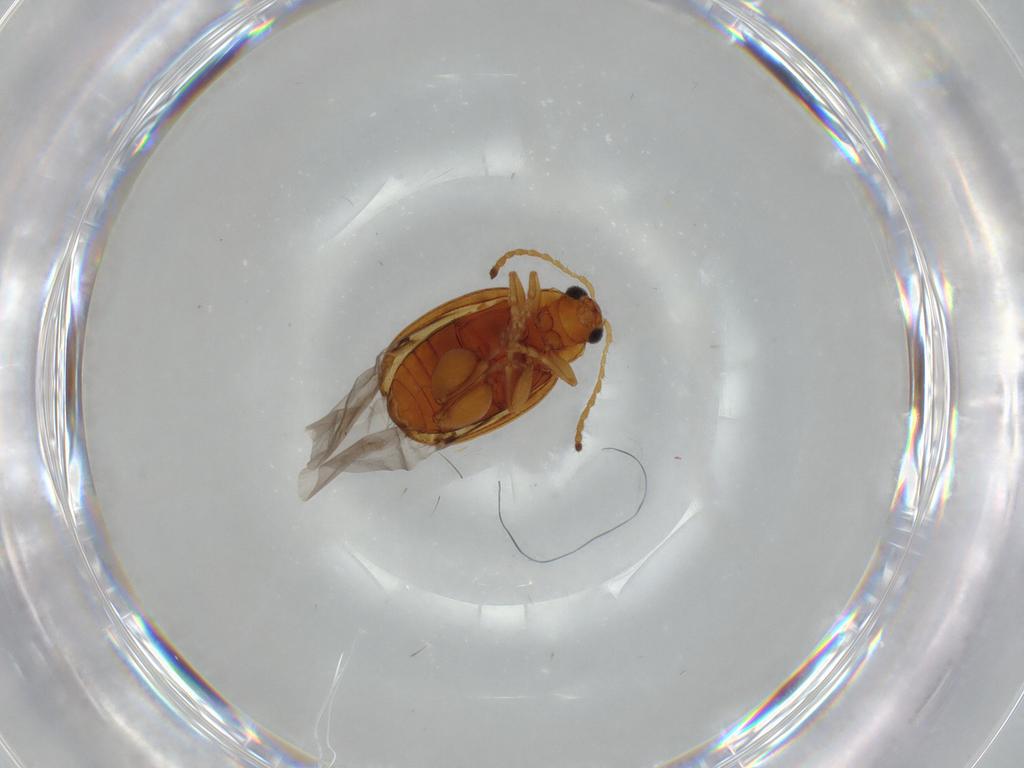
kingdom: Animalia
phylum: Arthropoda
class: Insecta
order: Coleoptera
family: Chrysomelidae
